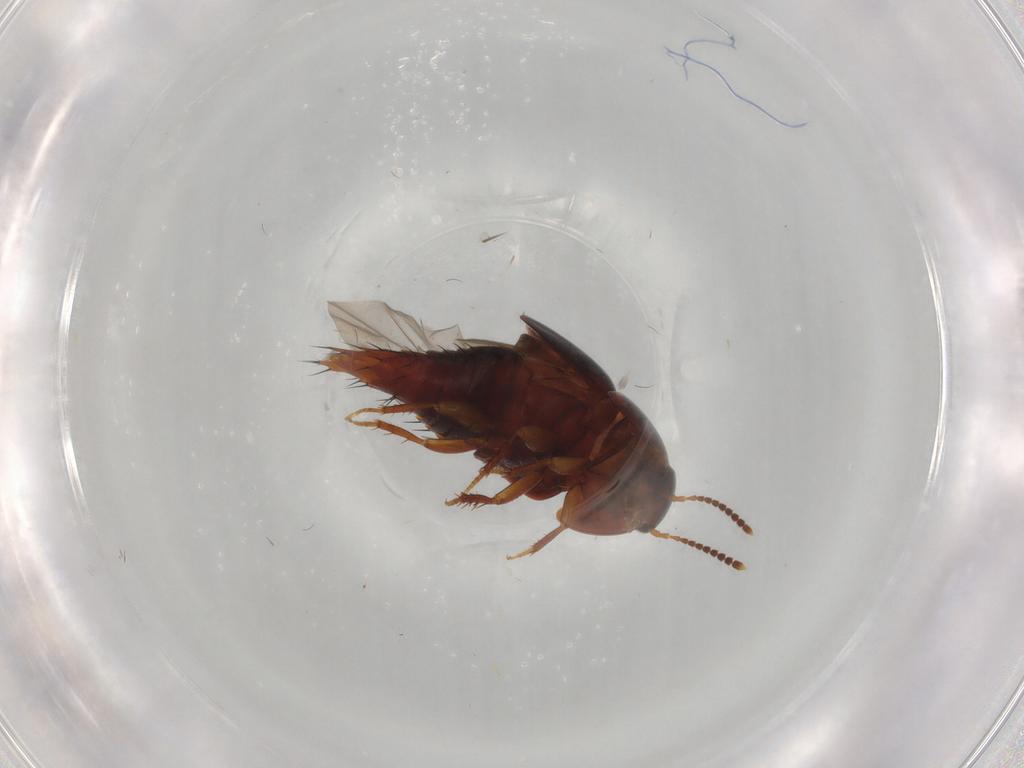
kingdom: Animalia
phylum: Arthropoda
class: Insecta
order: Coleoptera
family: Staphylinidae
